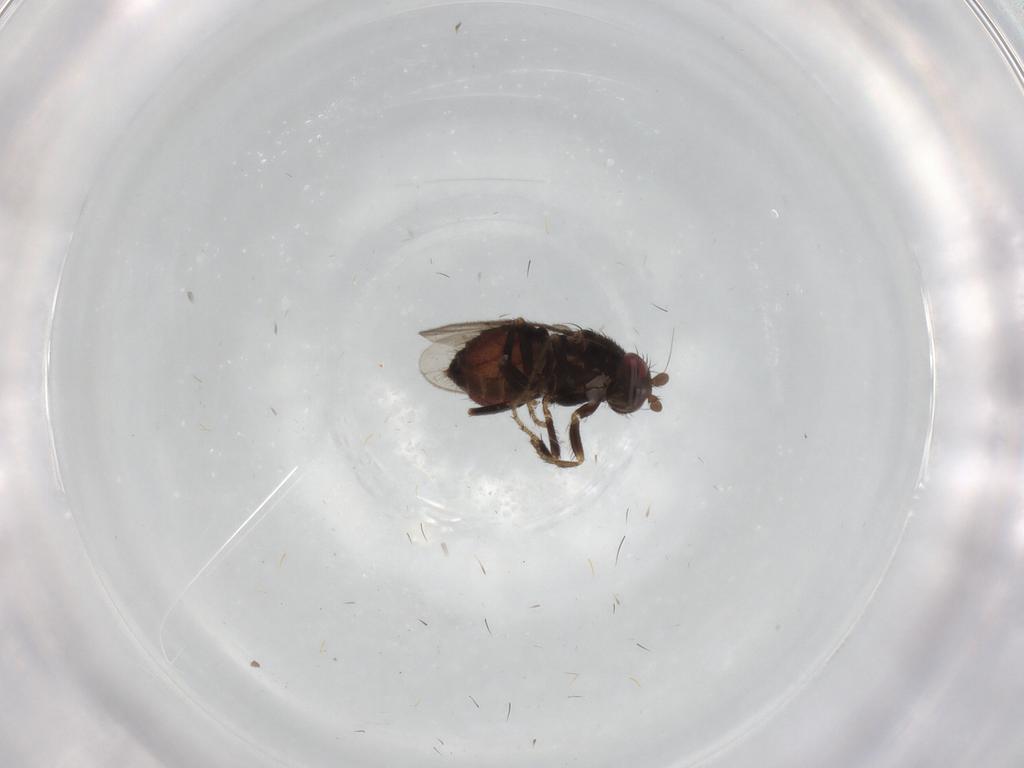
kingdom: Animalia
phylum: Arthropoda
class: Insecta
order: Diptera
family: Sphaeroceridae
